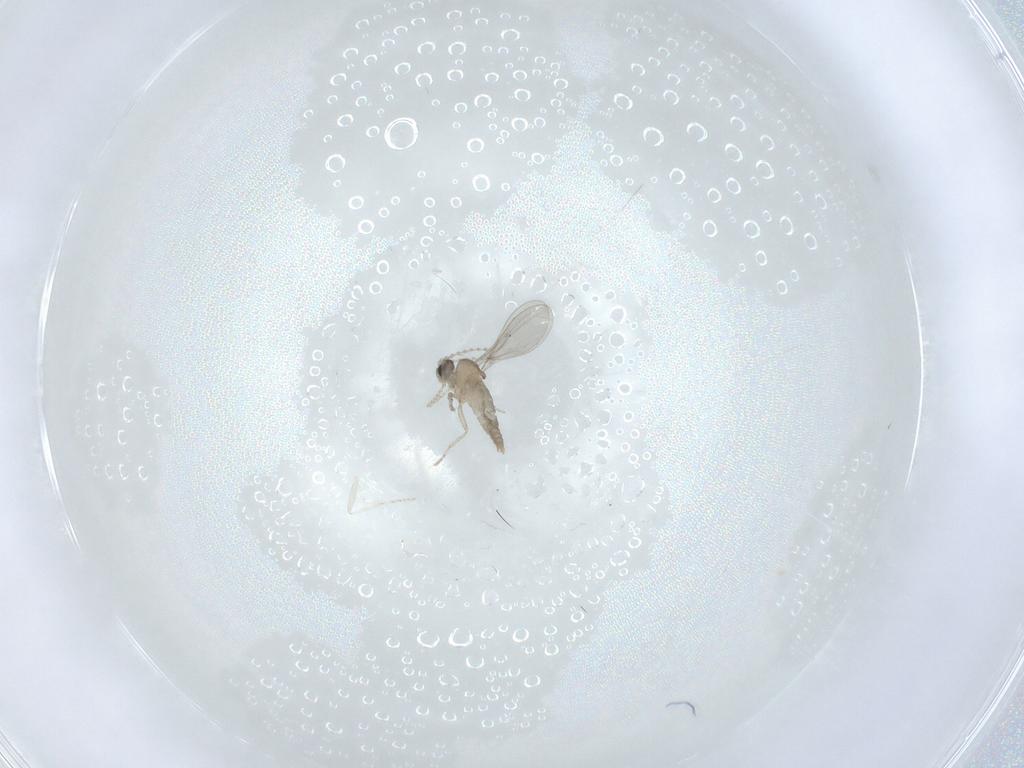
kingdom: Animalia
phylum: Arthropoda
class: Insecta
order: Diptera
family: Cecidomyiidae
